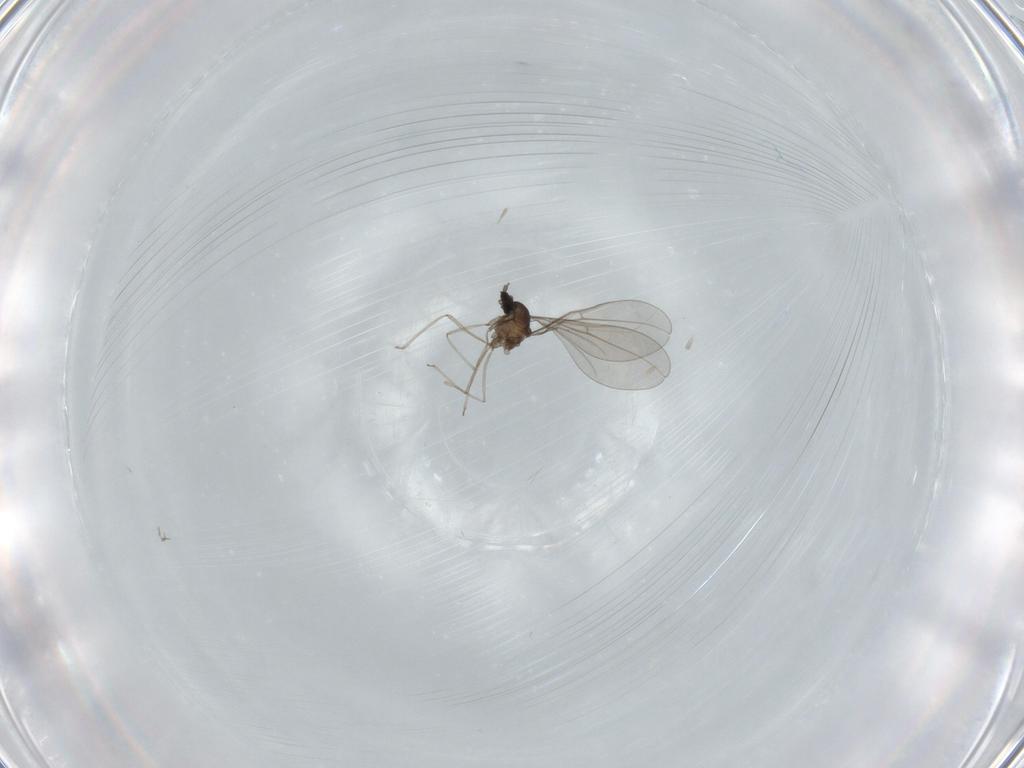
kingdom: Animalia
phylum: Arthropoda
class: Insecta
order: Diptera
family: Cecidomyiidae
